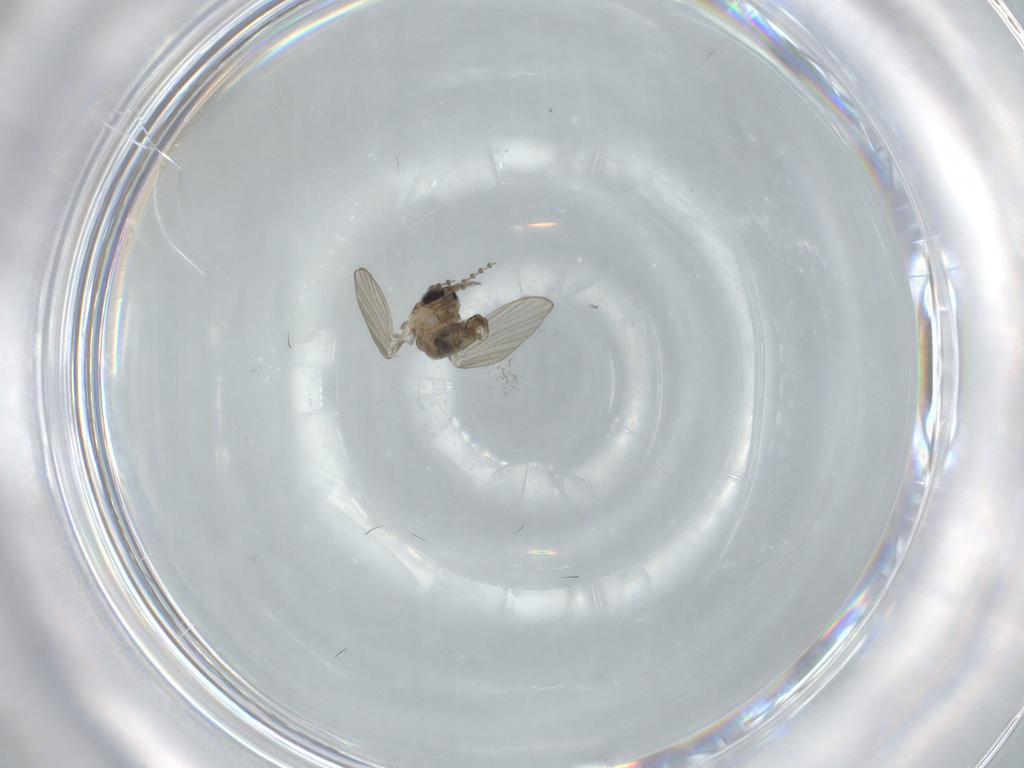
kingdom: Animalia
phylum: Arthropoda
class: Insecta
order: Diptera
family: Psychodidae
